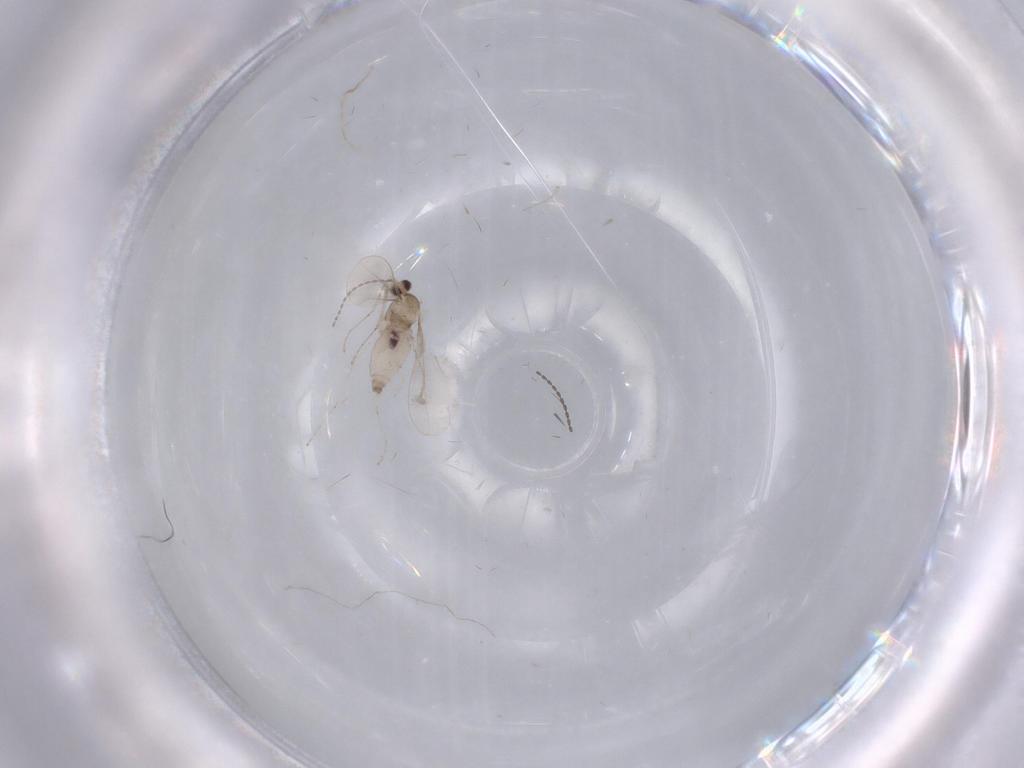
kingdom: Animalia
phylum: Arthropoda
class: Insecta
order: Diptera
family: Cecidomyiidae
